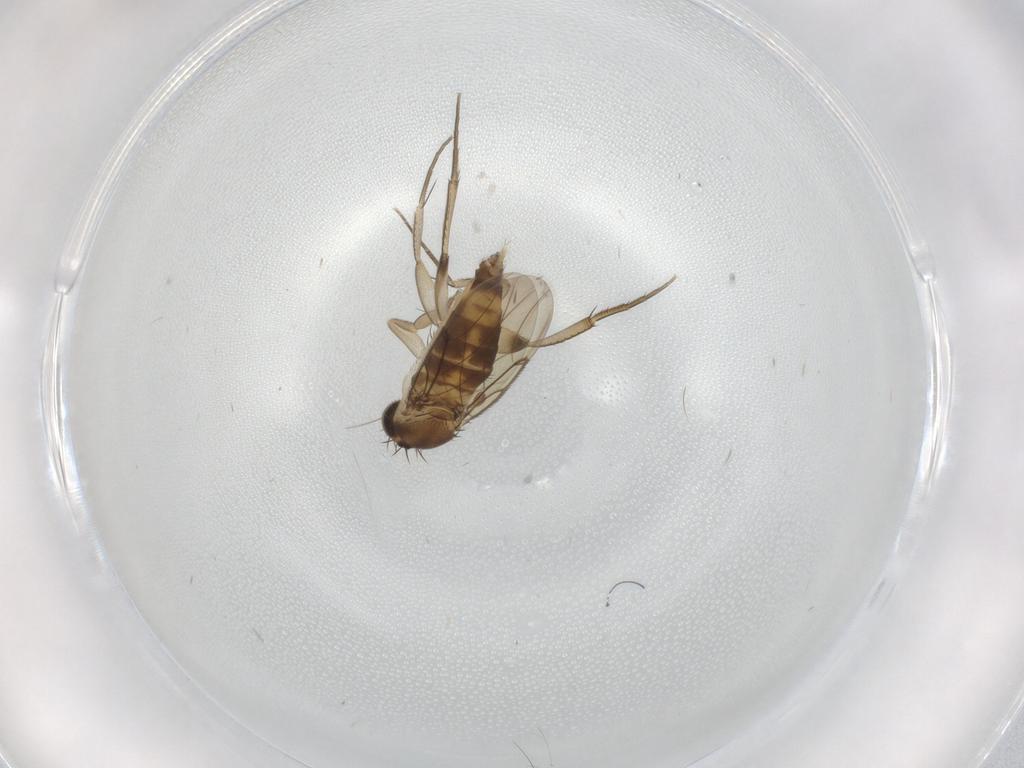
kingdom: Animalia
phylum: Arthropoda
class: Insecta
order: Diptera
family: Phoridae
